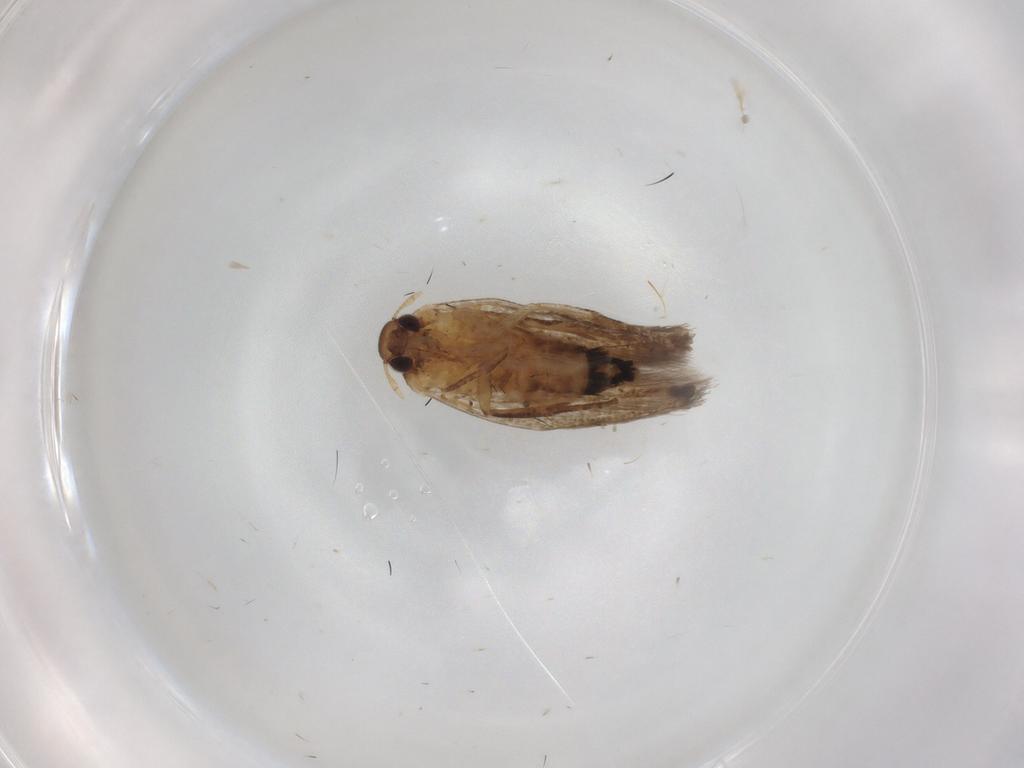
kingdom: Animalia
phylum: Arthropoda
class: Insecta
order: Lepidoptera
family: Cosmopterigidae
